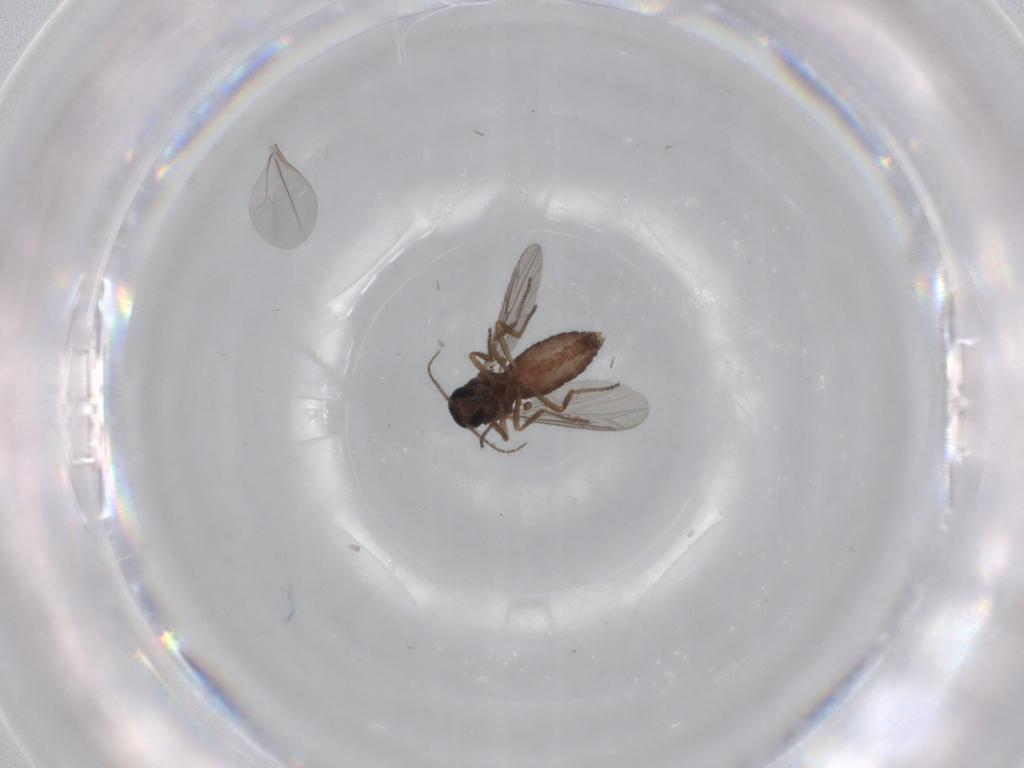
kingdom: Animalia
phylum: Arthropoda
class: Insecta
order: Diptera
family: Ceratopogonidae
